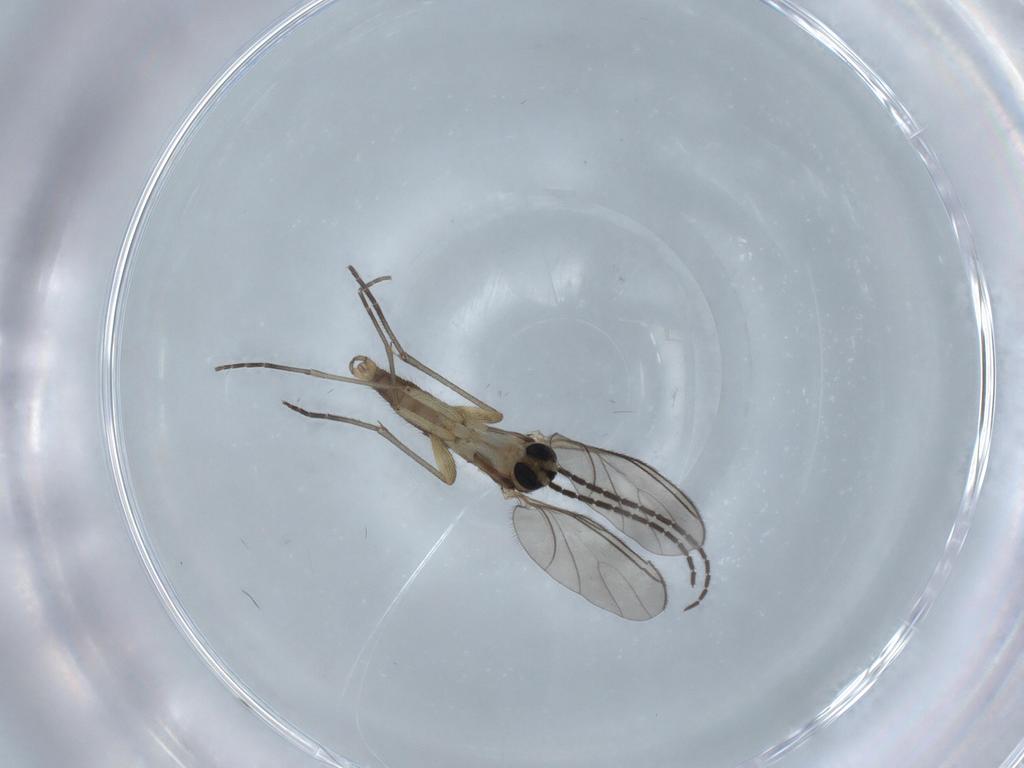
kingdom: Animalia
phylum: Arthropoda
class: Insecta
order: Diptera
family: Sciaridae
